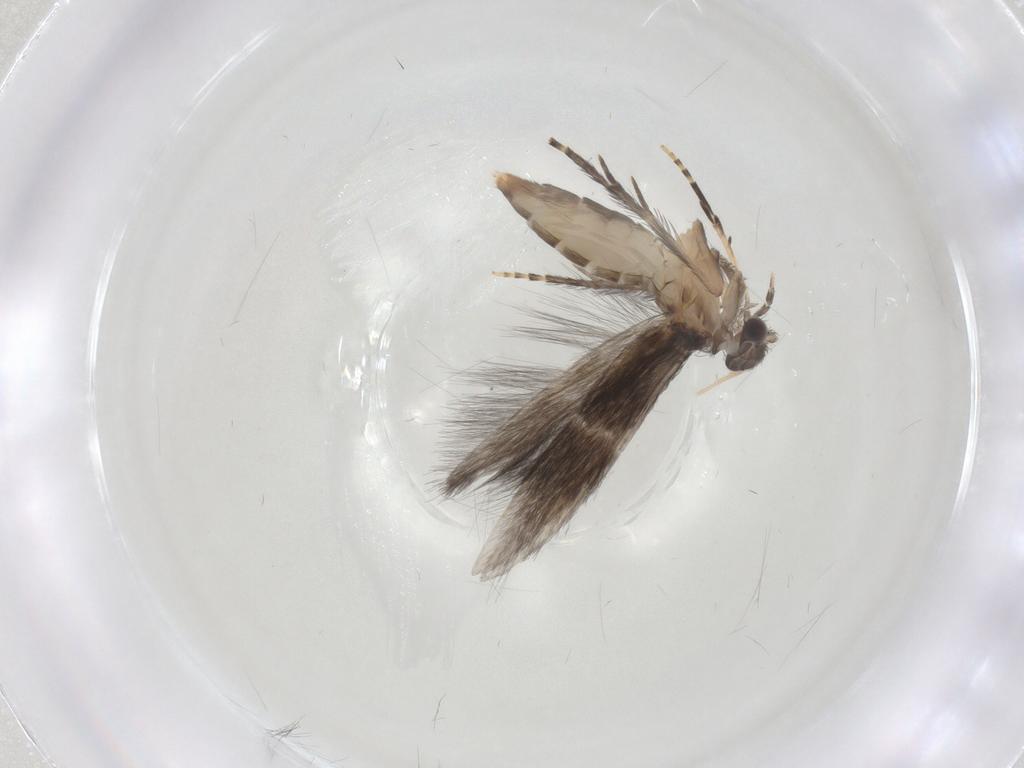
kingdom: Animalia
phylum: Arthropoda
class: Insecta
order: Trichoptera
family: Hydroptilidae
